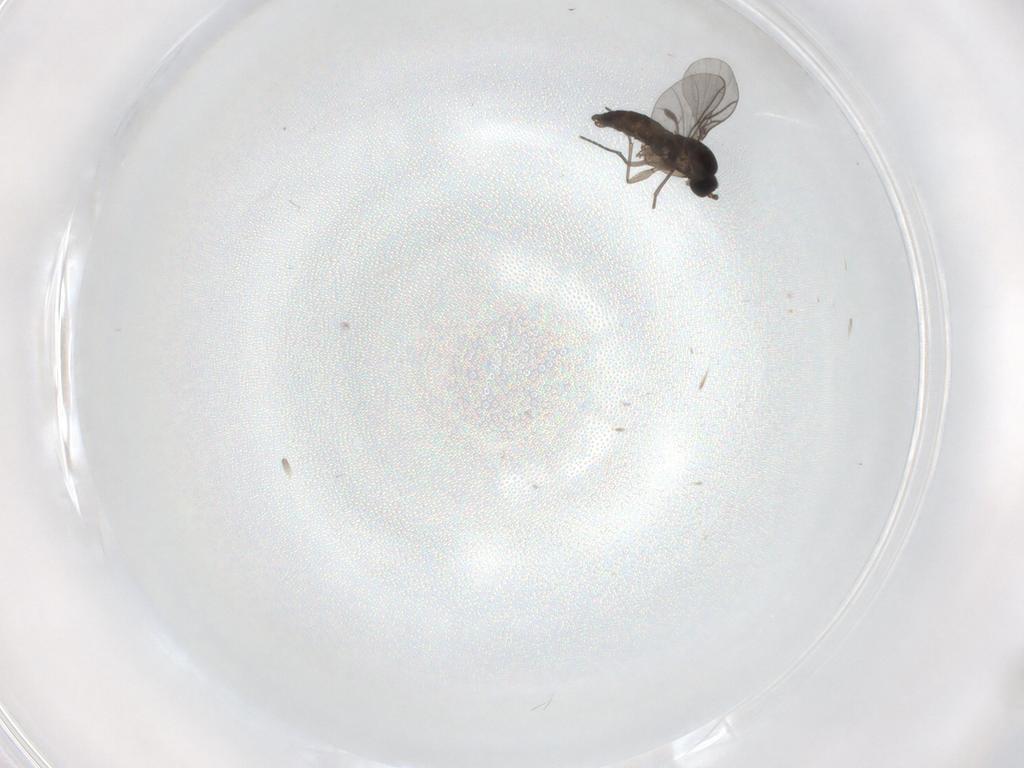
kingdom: Animalia
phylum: Arthropoda
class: Insecta
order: Diptera
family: Sciaridae
